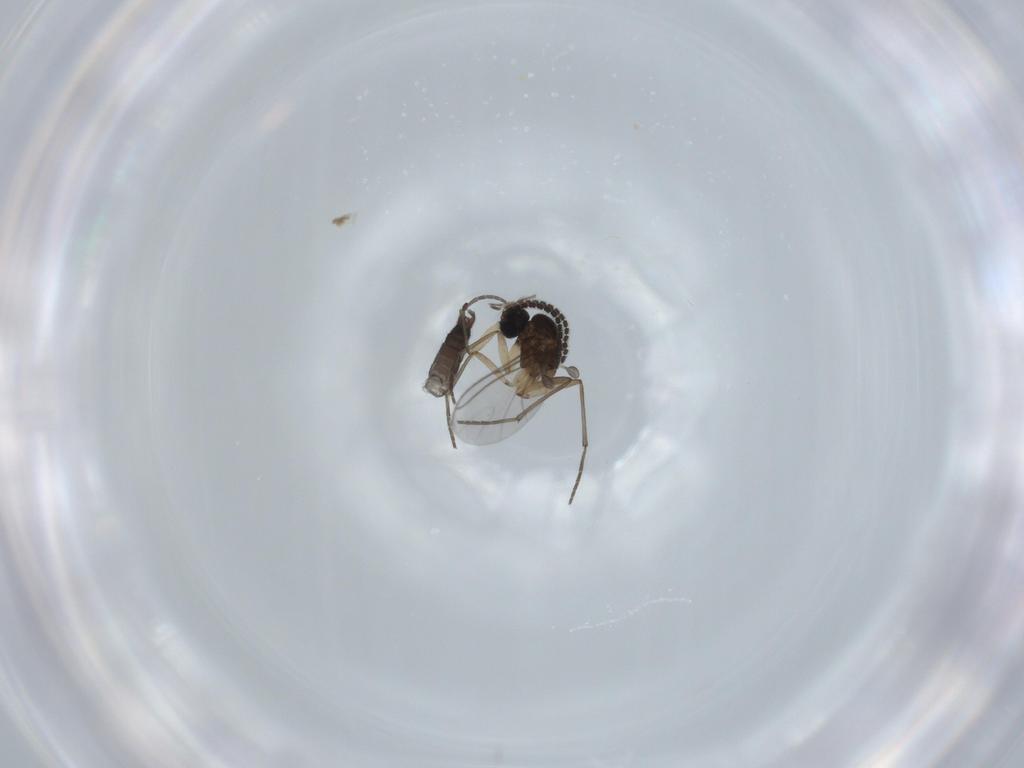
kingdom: Animalia
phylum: Arthropoda
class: Insecta
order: Diptera
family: Sciaridae
